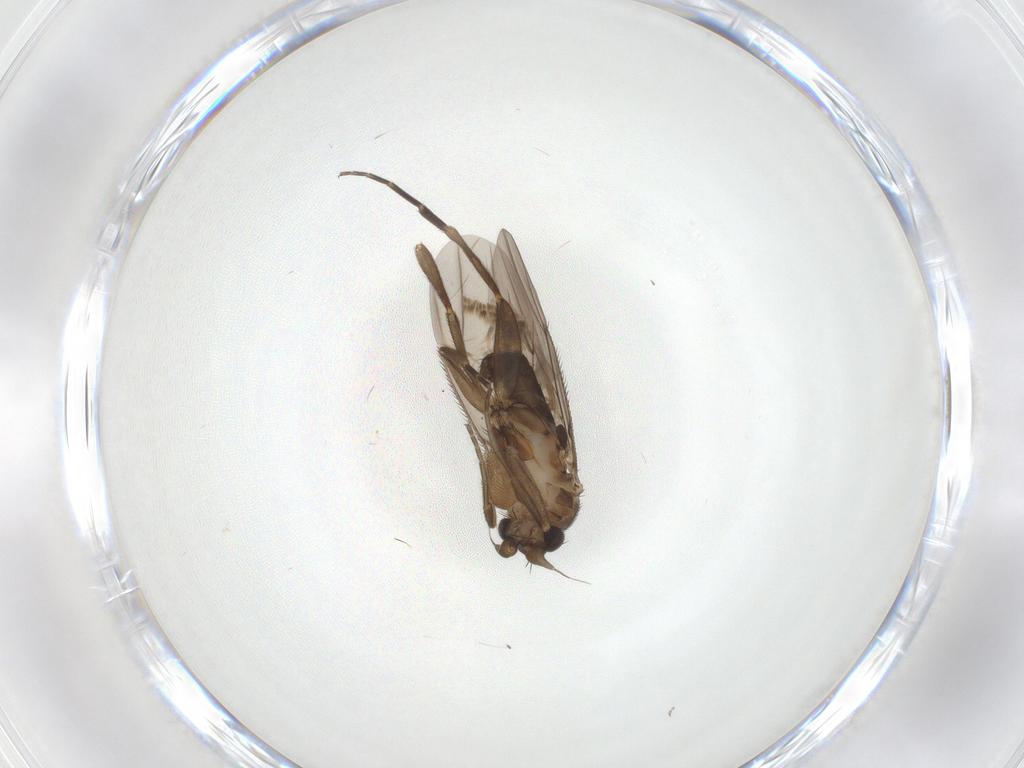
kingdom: Animalia
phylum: Arthropoda
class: Insecta
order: Diptera
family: Phoridae
